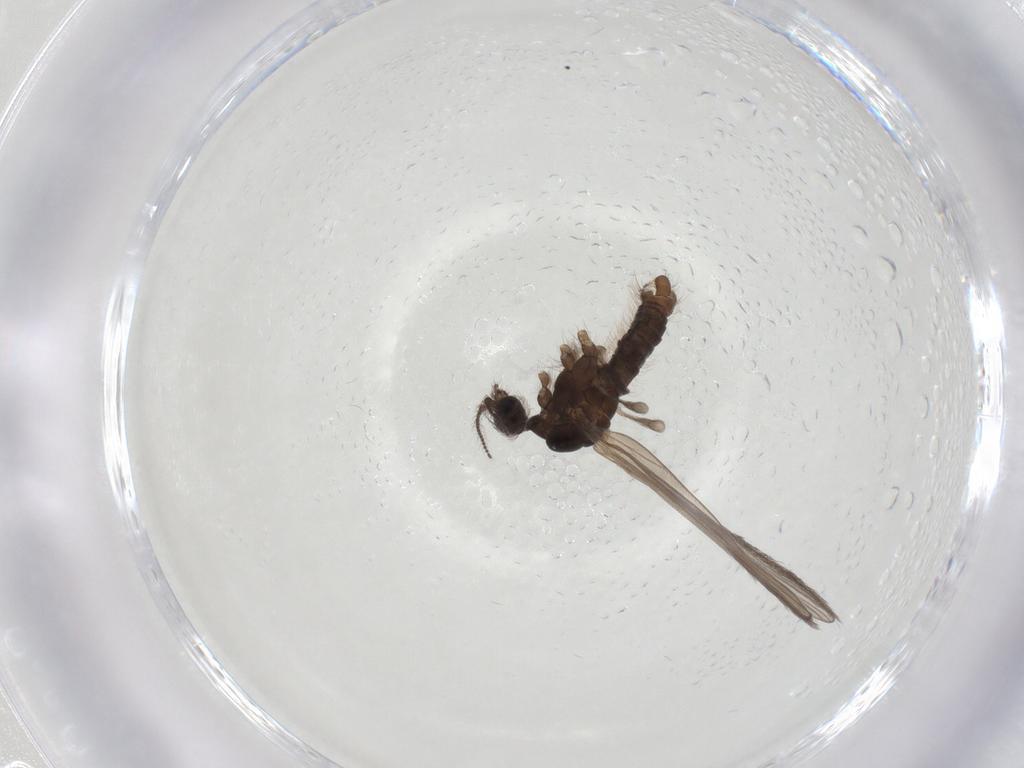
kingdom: Animalia
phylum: Arthropoda
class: Insecta
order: Diptera
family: Limoniidae
